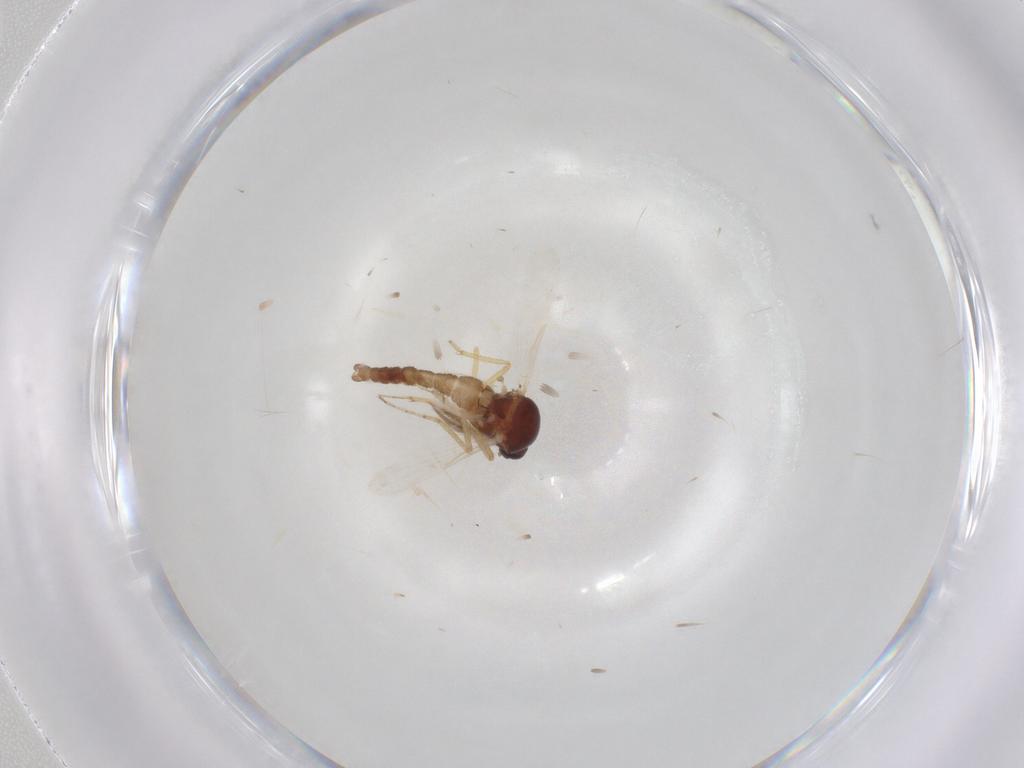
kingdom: Animalia
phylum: Arthropoda
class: Insecta
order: Diptera
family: Ceratopogonidae
